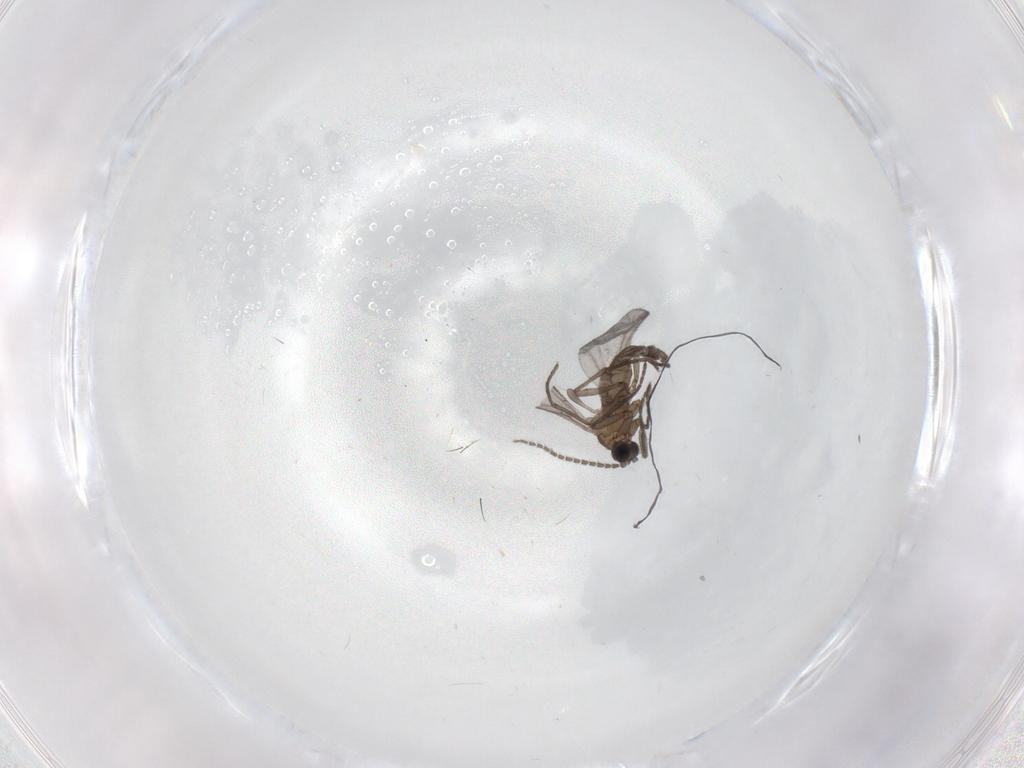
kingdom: Animalia
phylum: Arthropoda
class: Insecta
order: Diptera
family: Sciaridae
